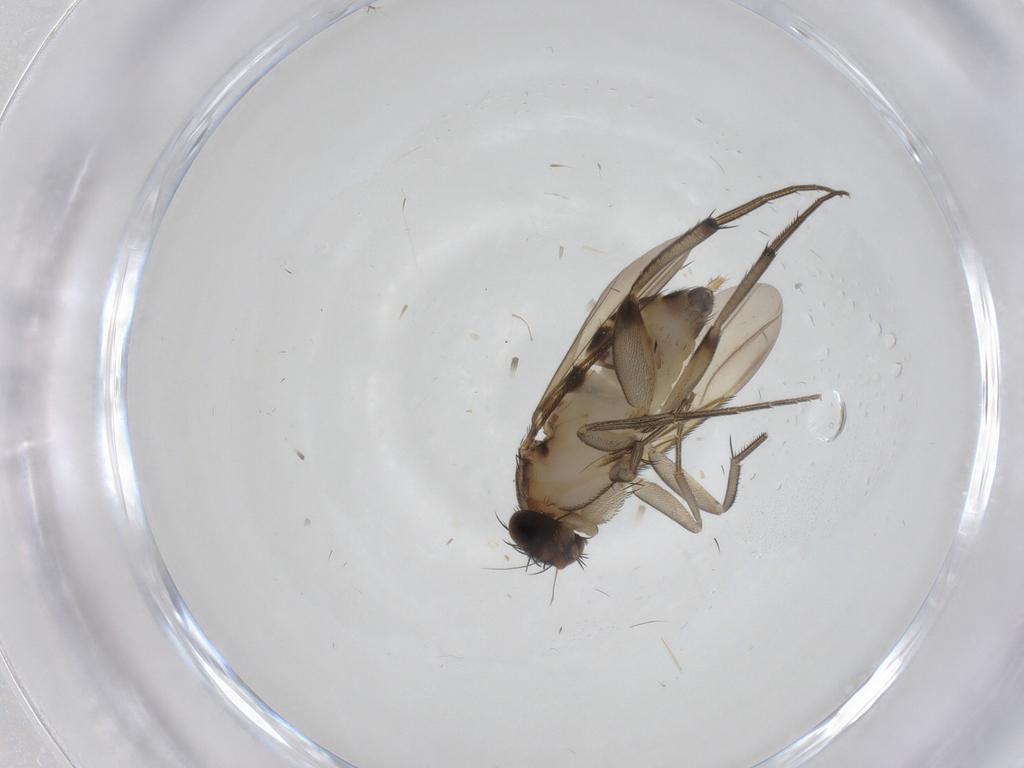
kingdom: Animalia
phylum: Arthropoda
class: Insecta
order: Diptera
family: Phoridae
